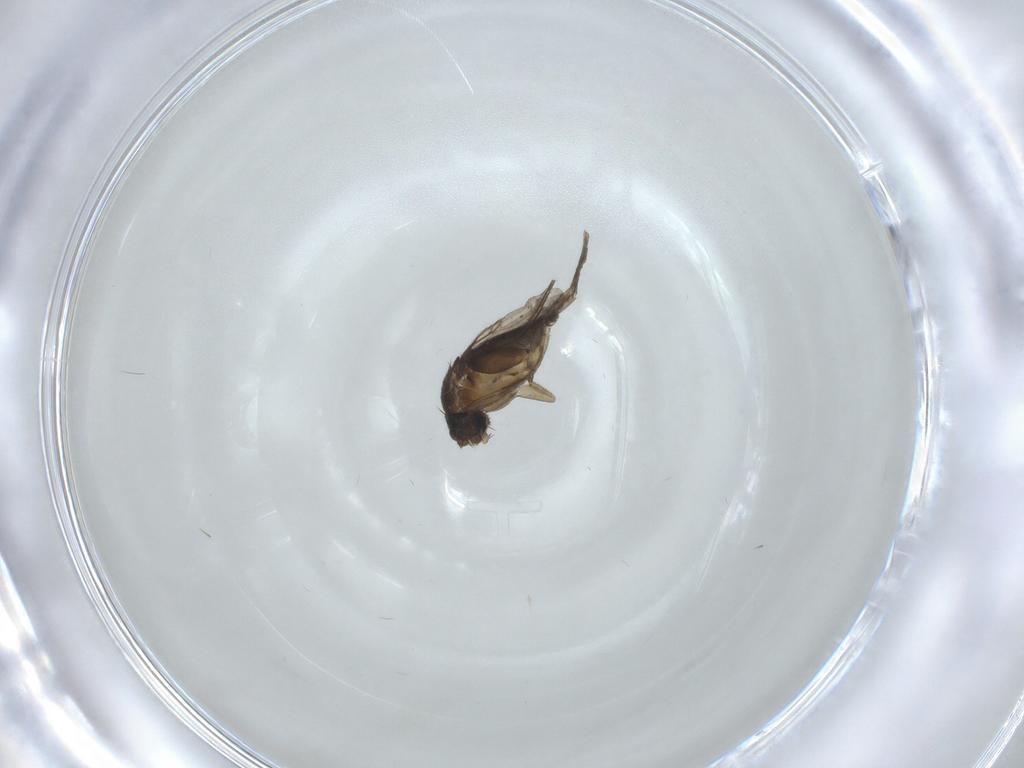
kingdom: Animalia
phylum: Arthropoda
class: Insecta
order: Diptera
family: Phoridae
